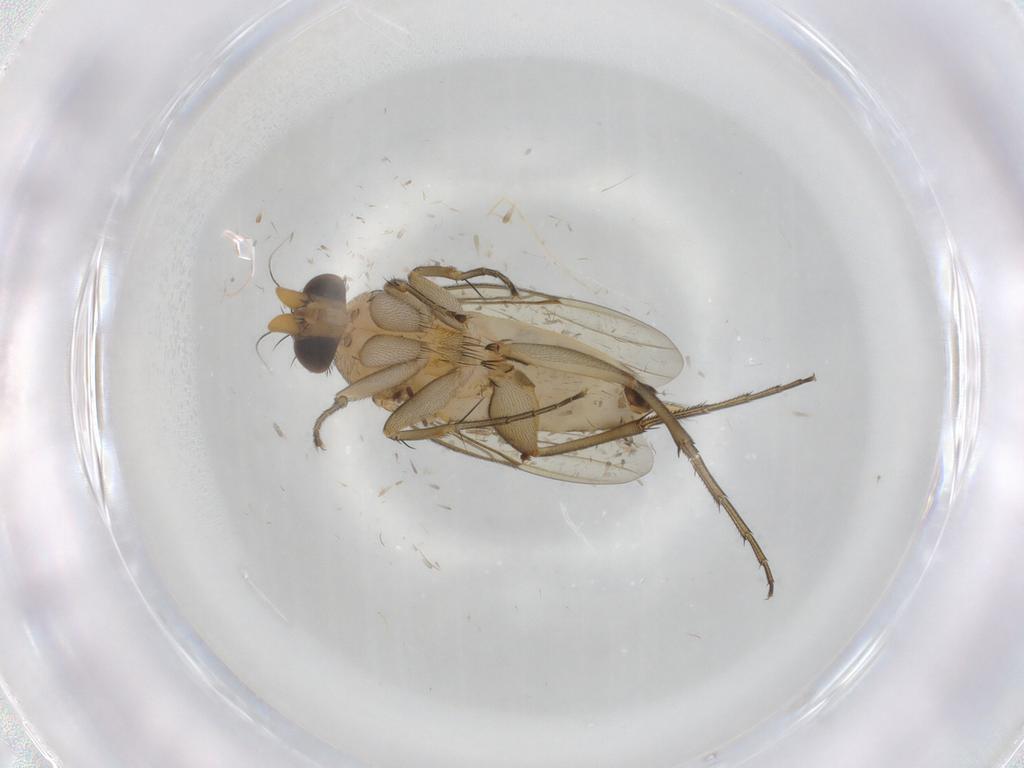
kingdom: Animalia
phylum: Arthropoda
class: Insecta
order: Diptera
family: Phoridae
